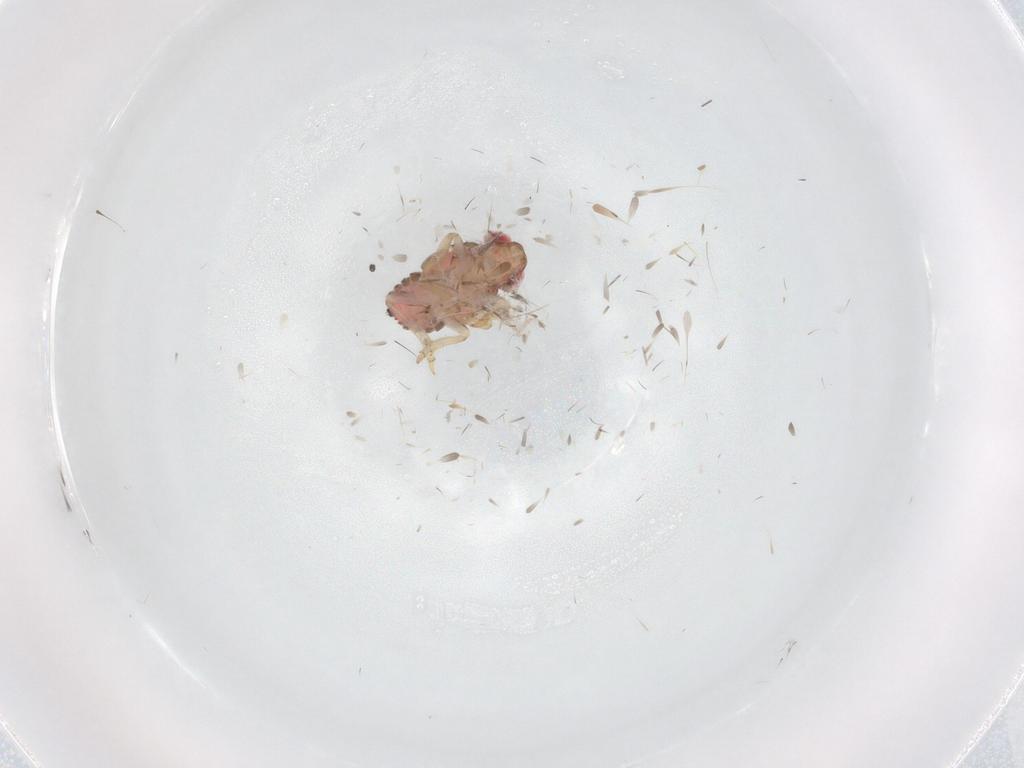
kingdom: Animalia
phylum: Arthropoda
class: Insecta
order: Hemiptera
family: Issidae
